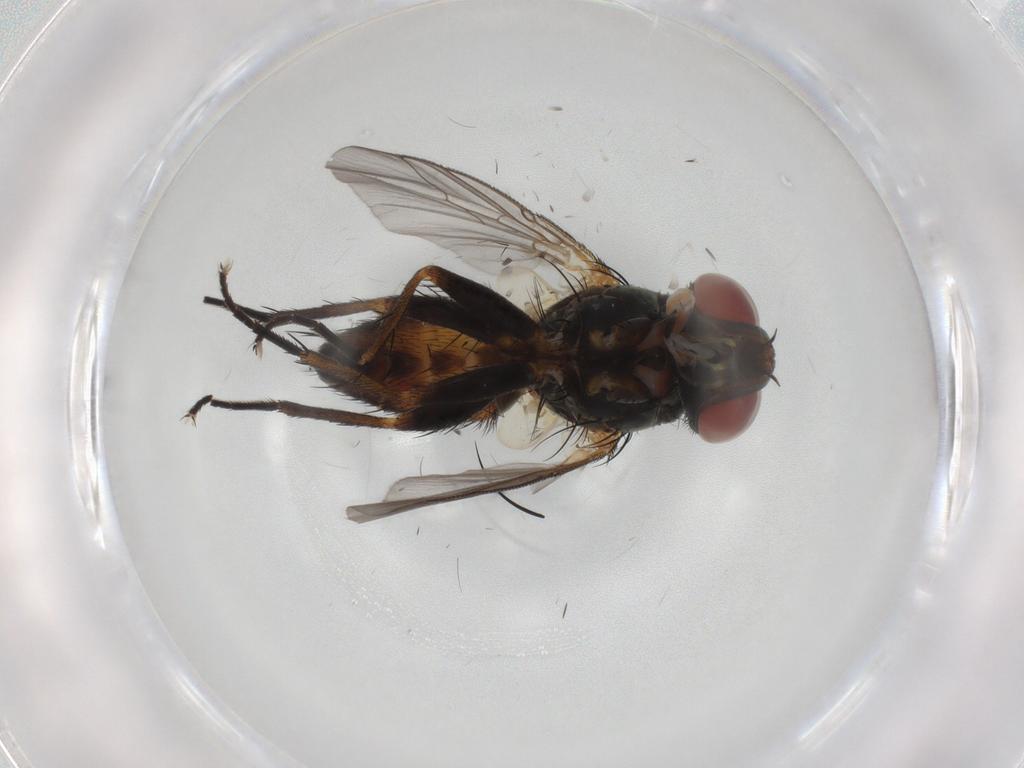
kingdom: Animalia
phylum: Arthropoda
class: Insecta
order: Diptera
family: Sarcophagidae
